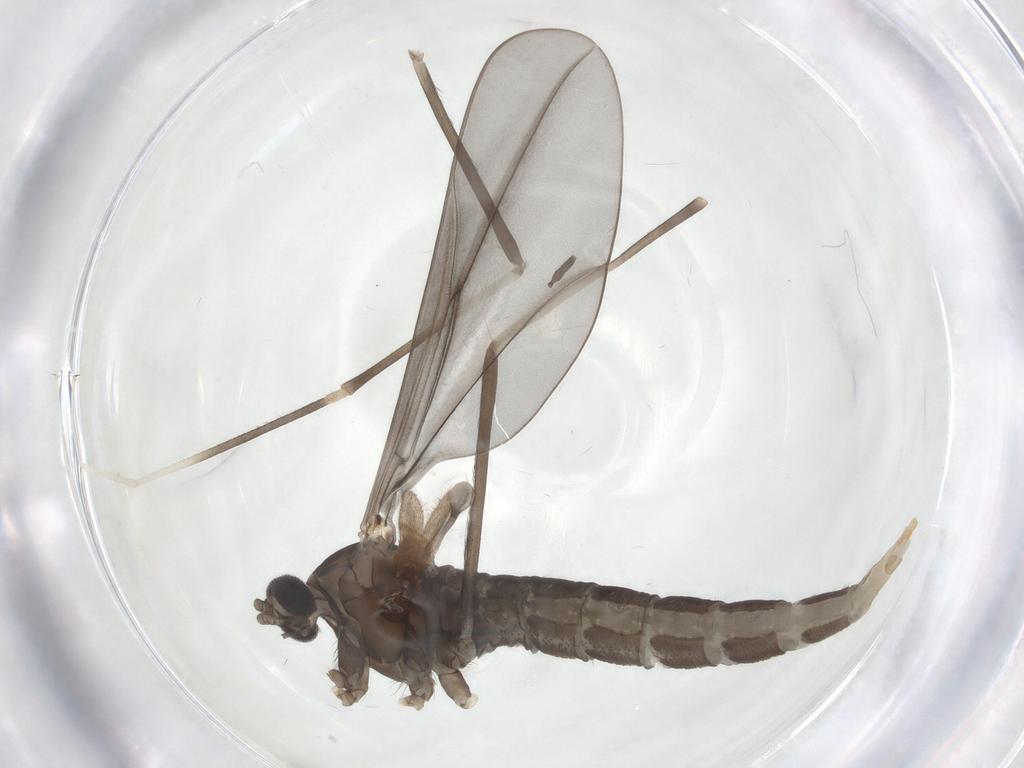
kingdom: Animalia
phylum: Arthropoda
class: Insecta
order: Diptera
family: Cecidomyiidae
